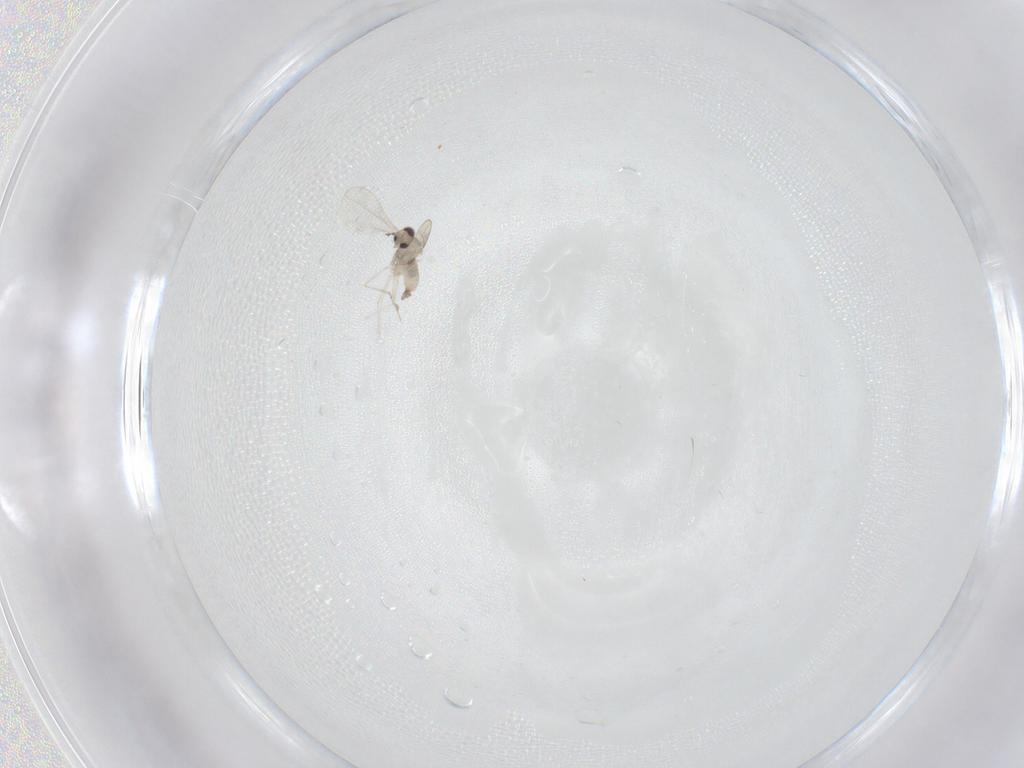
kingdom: Animalia
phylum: Arthropoda
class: Insecta
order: Diptera
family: Cecidomyiidae
